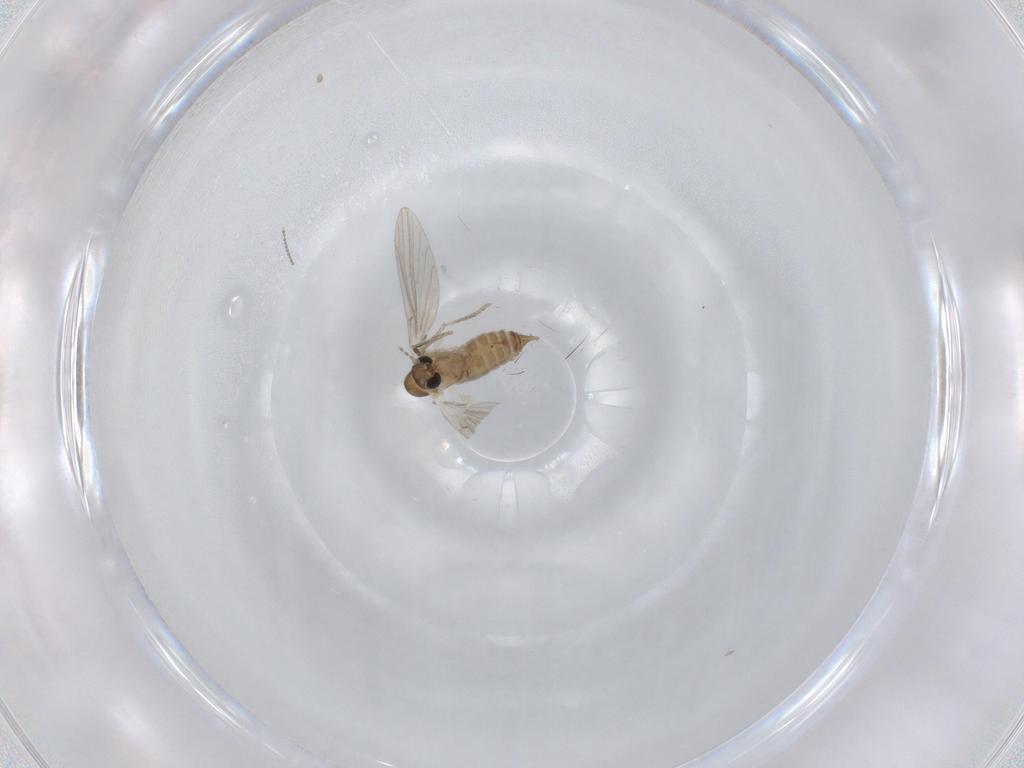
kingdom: Animalia
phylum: Arthropoda
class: Insecta
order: Diptera
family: Cecidomyiidae
